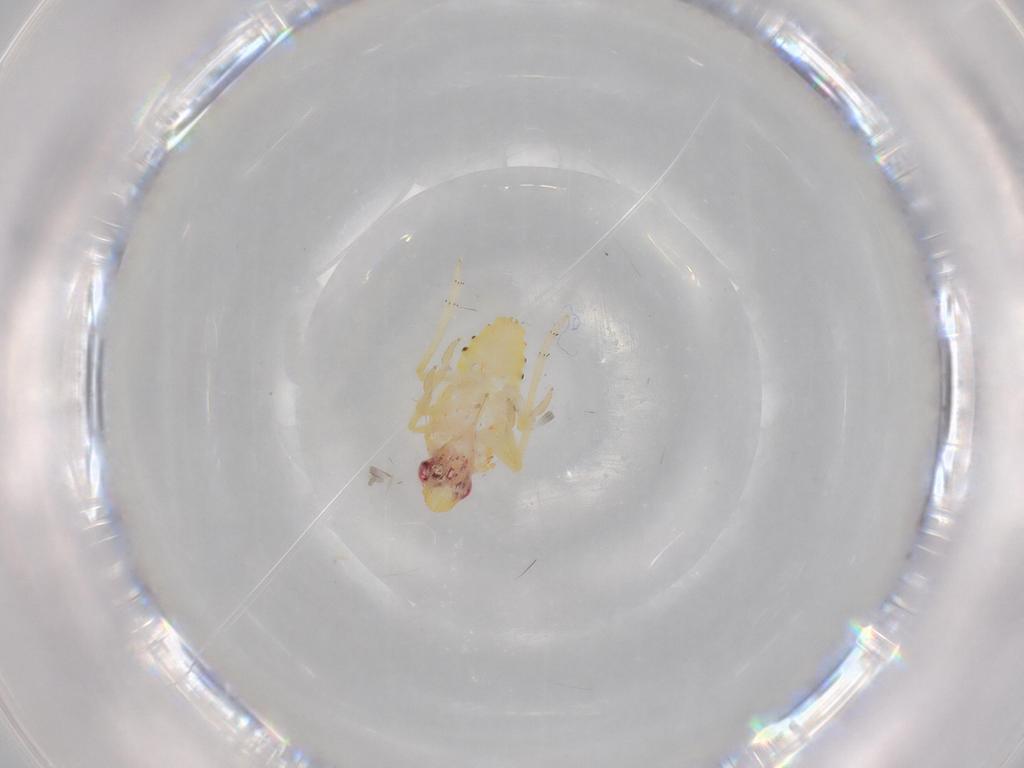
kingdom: Animalia
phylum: Arthropoda
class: Insecta
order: Hemiptera
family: Tropiduchidae
